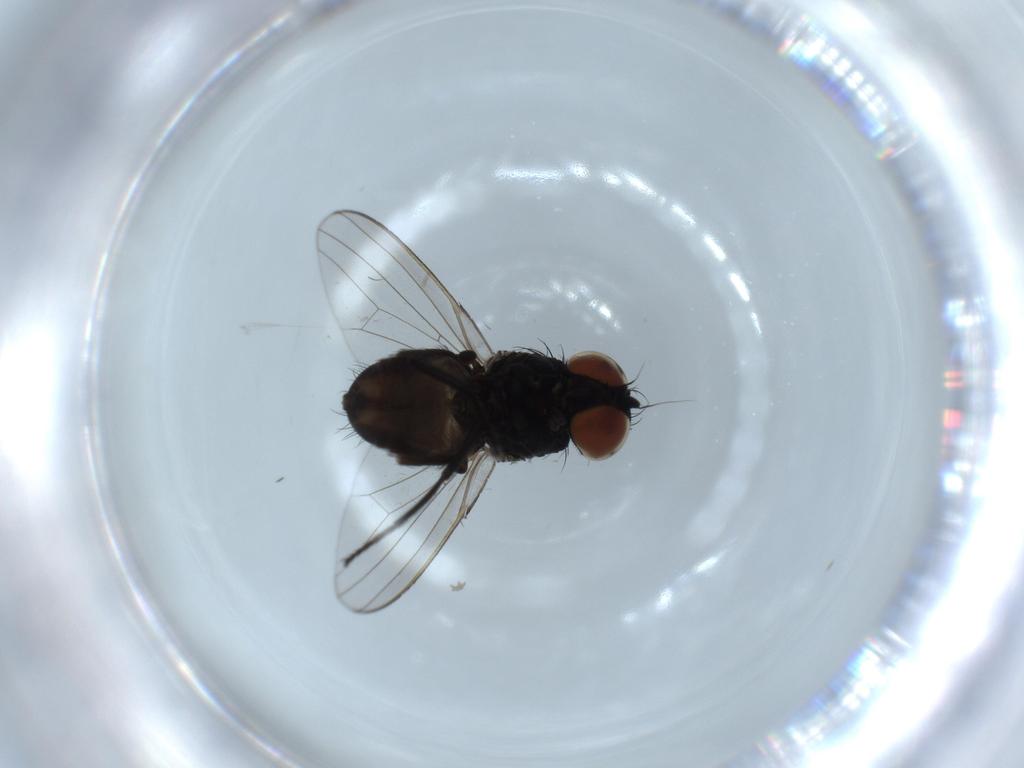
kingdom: Animalia
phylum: Arthropoda
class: Insecta
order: Diptera
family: Milichiidae
